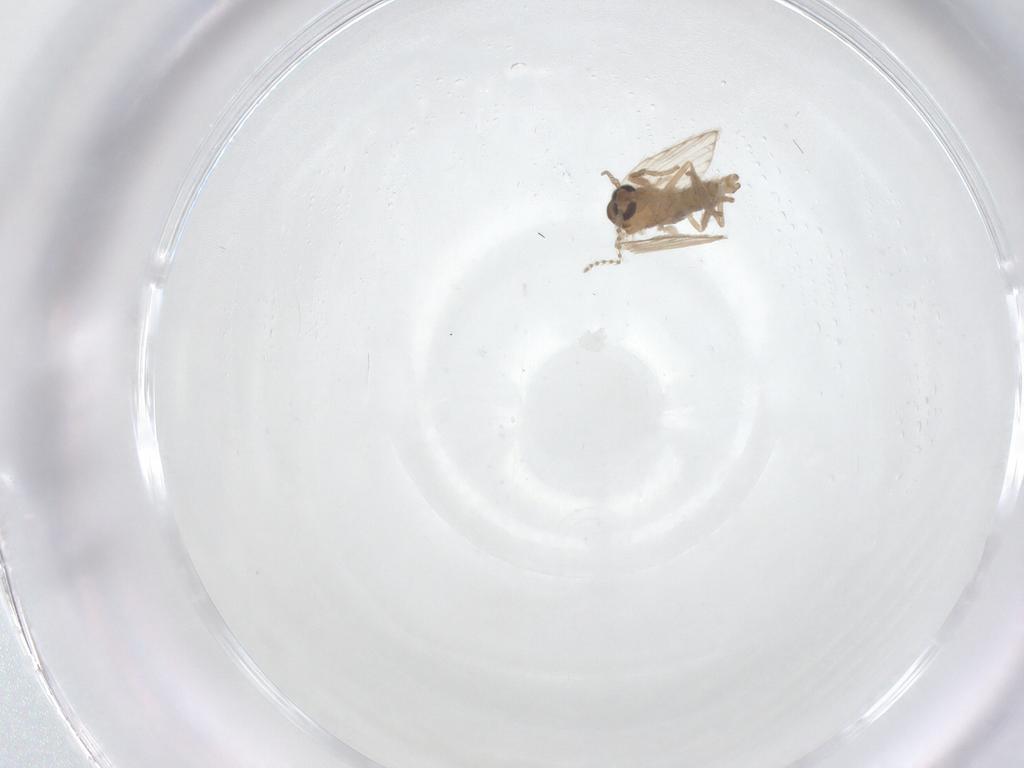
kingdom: Animalia
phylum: Arthropoda
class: Insecta
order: Diptera
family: Psychodidae
